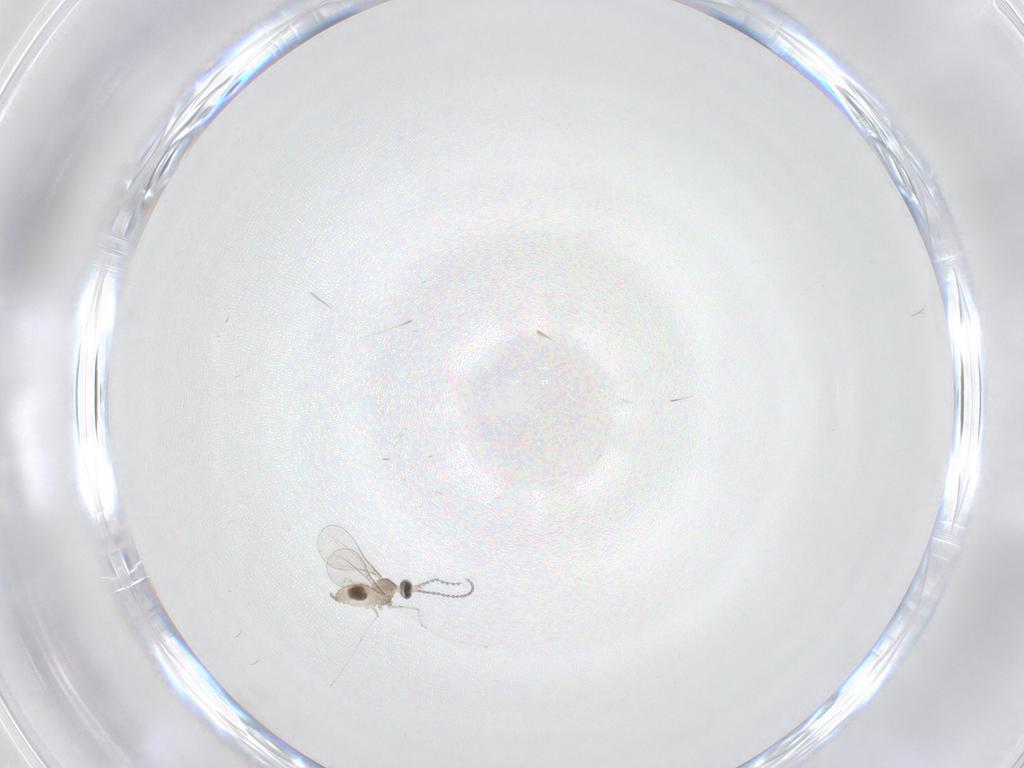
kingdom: Animalia
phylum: Arthropoda
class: Insecta
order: Diptera
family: Cecidomyiidae
